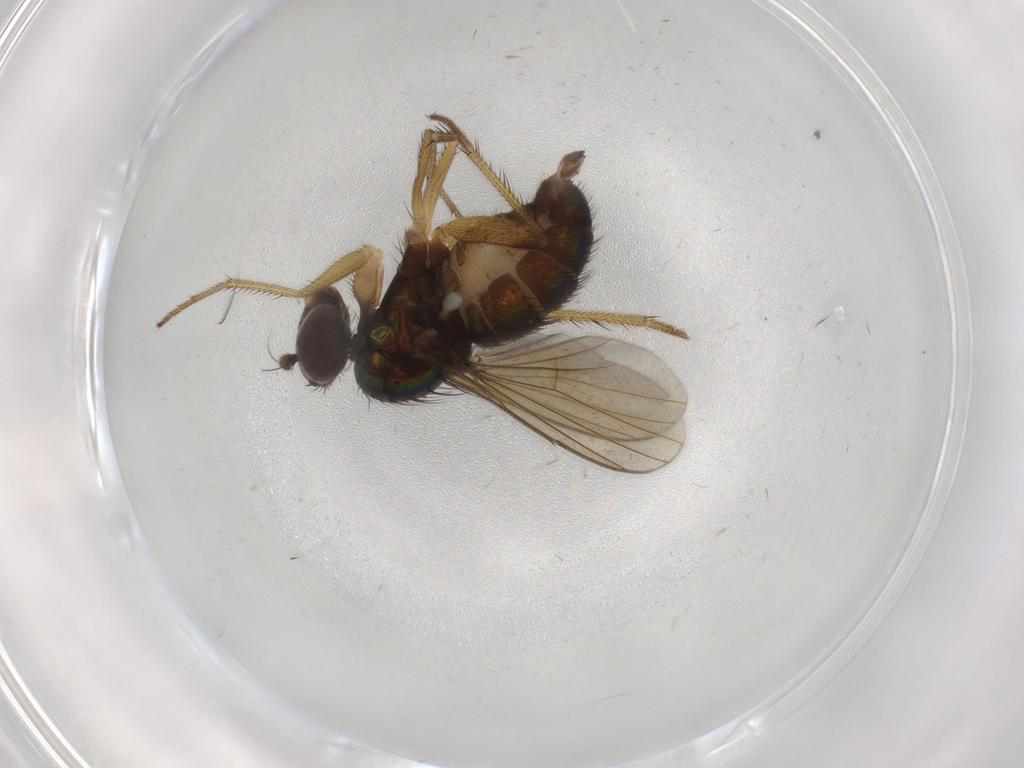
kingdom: Animalia
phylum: Arthropoda
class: Insecta
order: Diptera
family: Dolichopodidae
